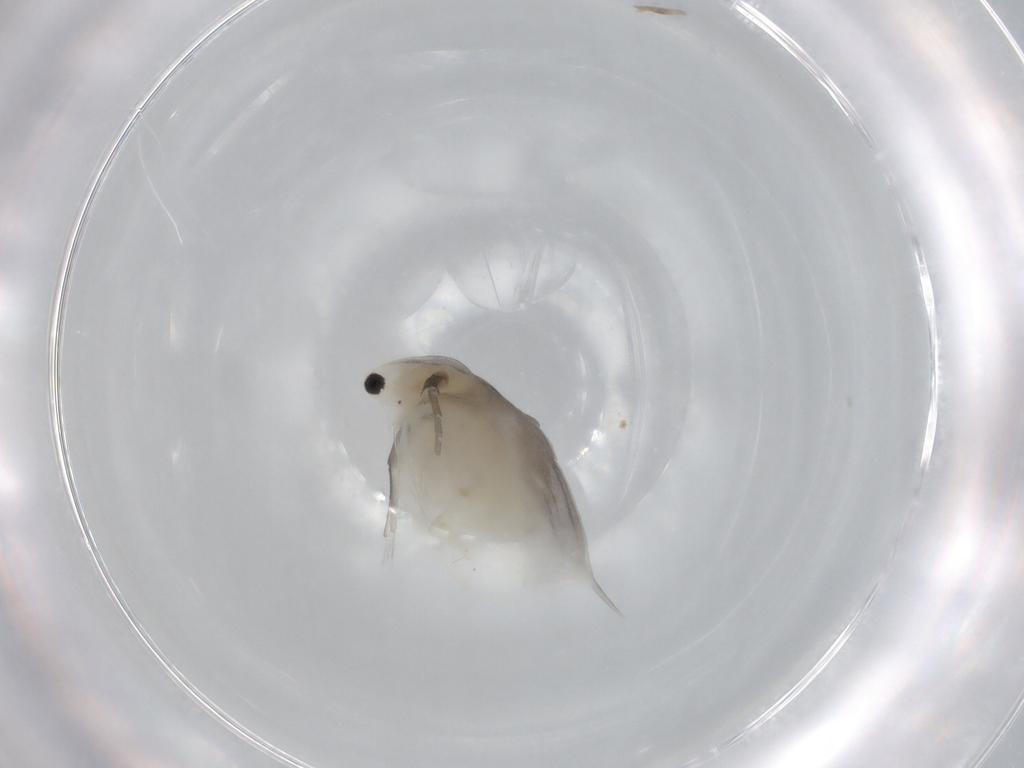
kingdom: Animalia
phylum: Arthropoda
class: Branchiopoda
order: Diplostraca
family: Daphniidae
